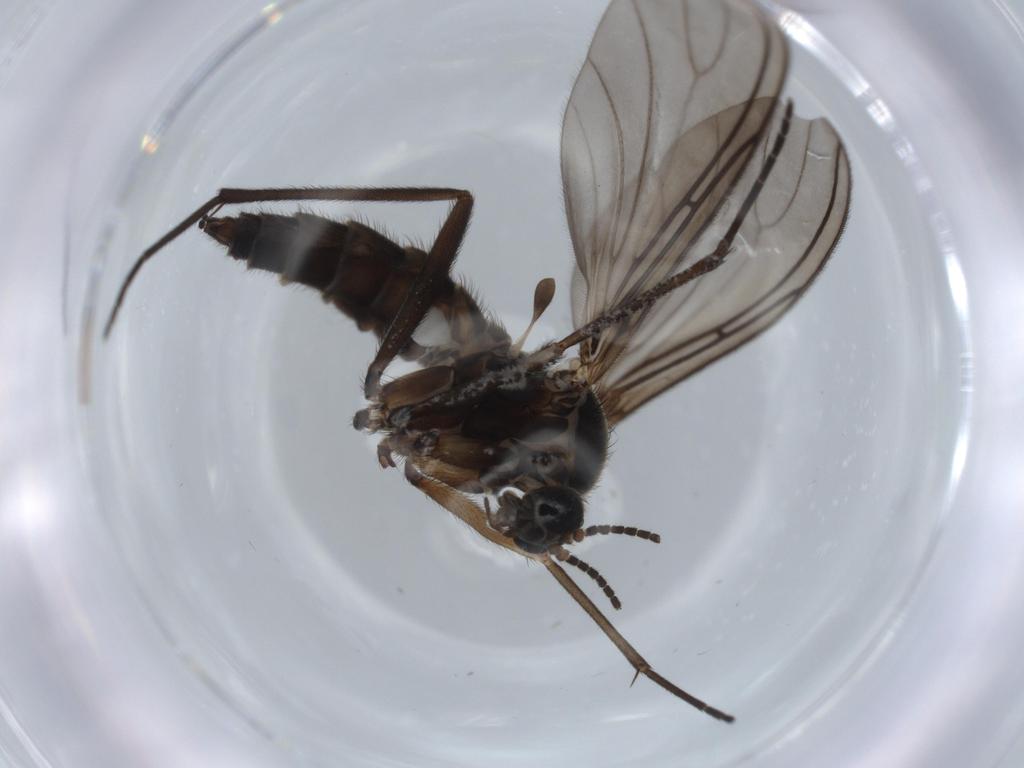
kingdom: Animalia
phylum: Arthropoda
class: Insecta
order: Diptera
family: Sciaridae
